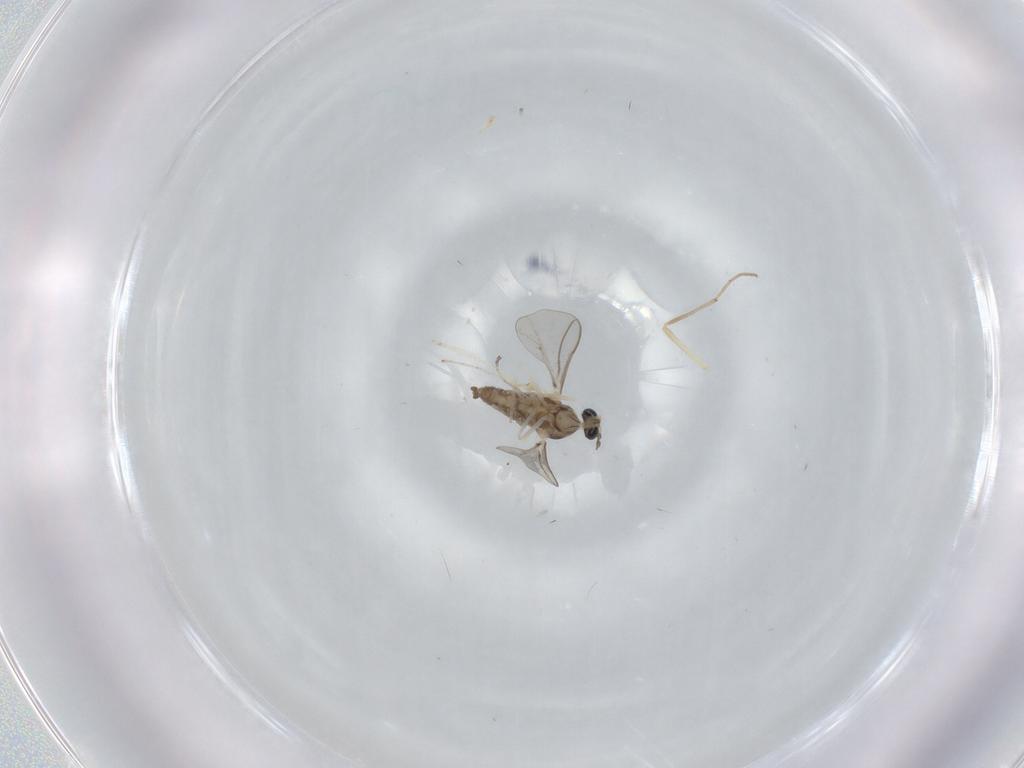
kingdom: Animalia
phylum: Arthropoda
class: Insecta
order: Diptera
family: Cecidomyiidae
